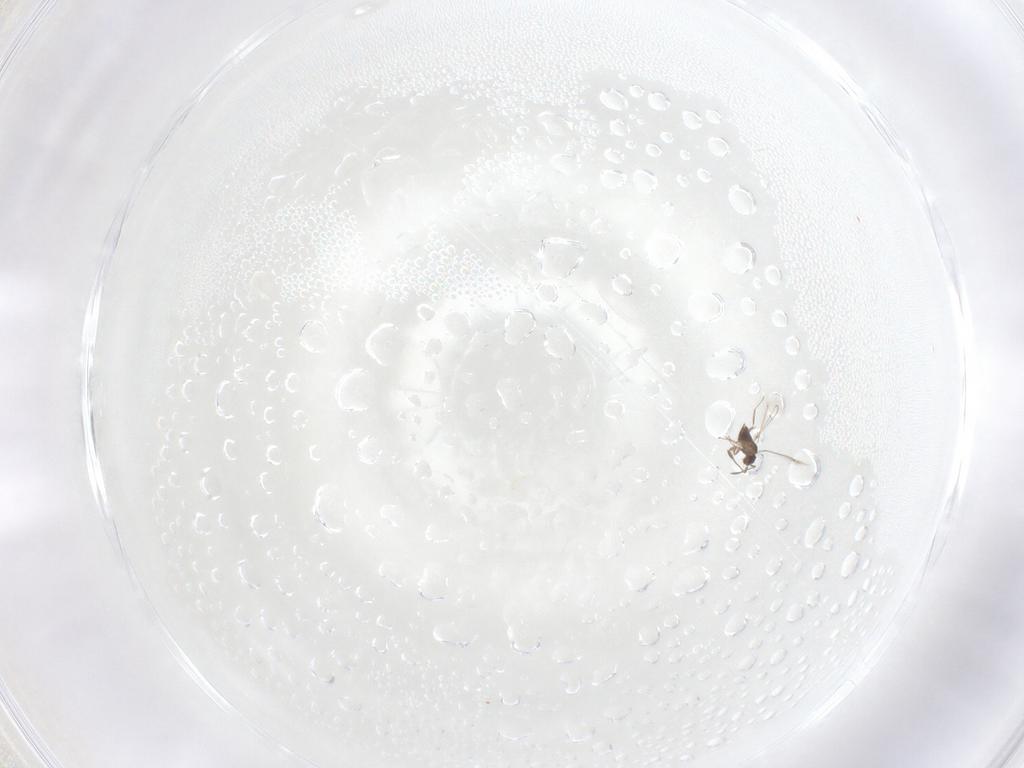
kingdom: Animalia
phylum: Arthropoda
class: Insecta
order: Hymenoptera
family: Mymaridae
